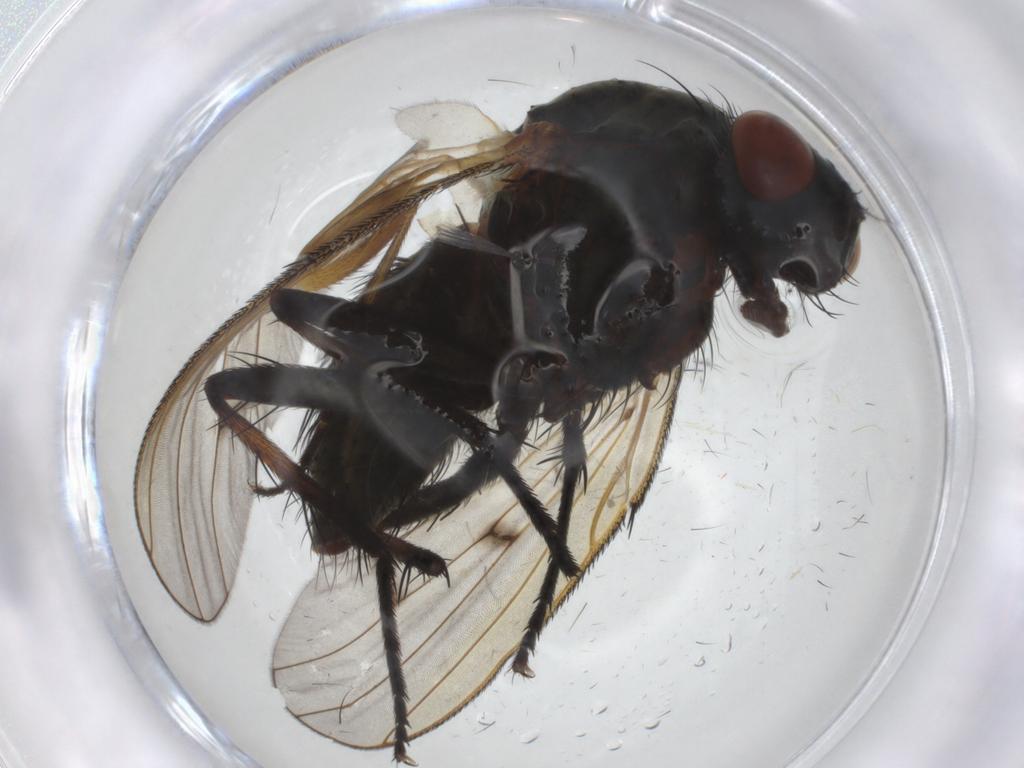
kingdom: Animalia
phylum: Arthropoda
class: Insecta
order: Diptera
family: Anthomyiidae
